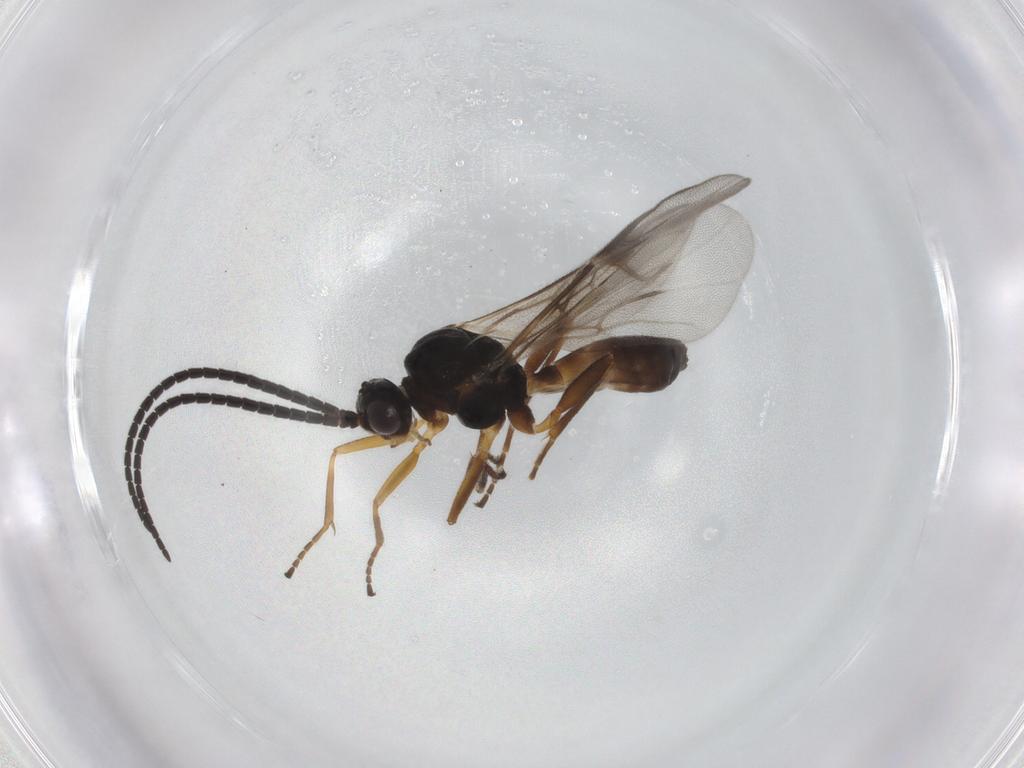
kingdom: Animalia
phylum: Arthropoda
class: Insecta
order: Hymenoptera
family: Braconidae
